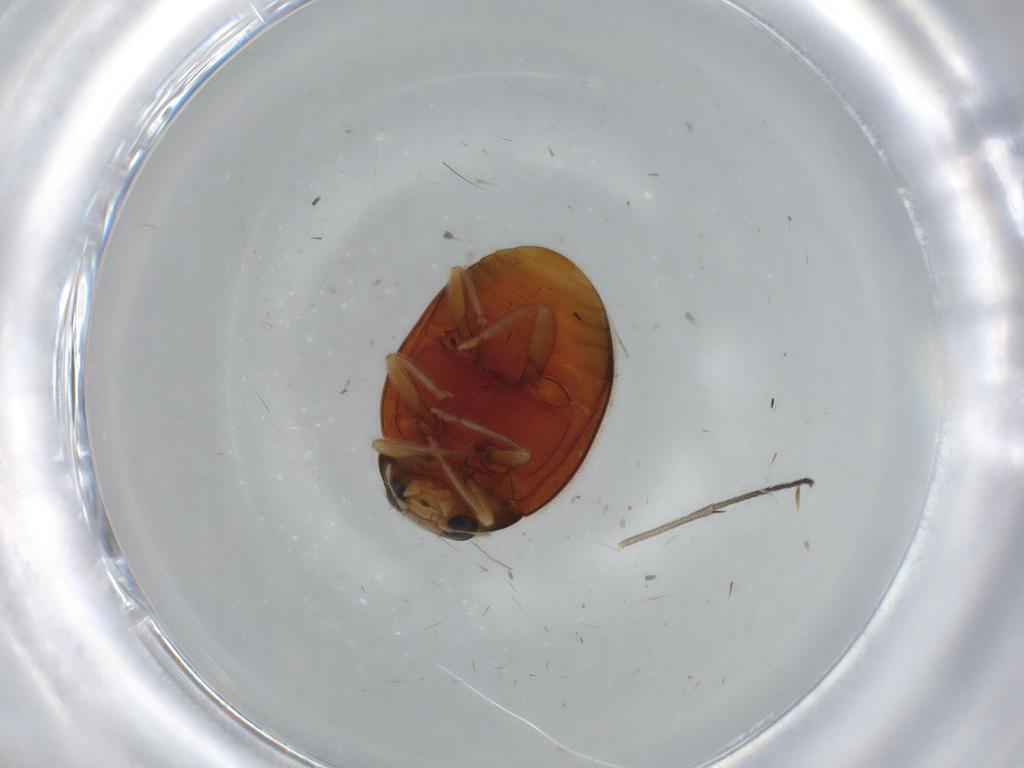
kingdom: Animalia
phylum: Arthropoda
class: Insecta
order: Coleoptera
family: Coccinellidae
